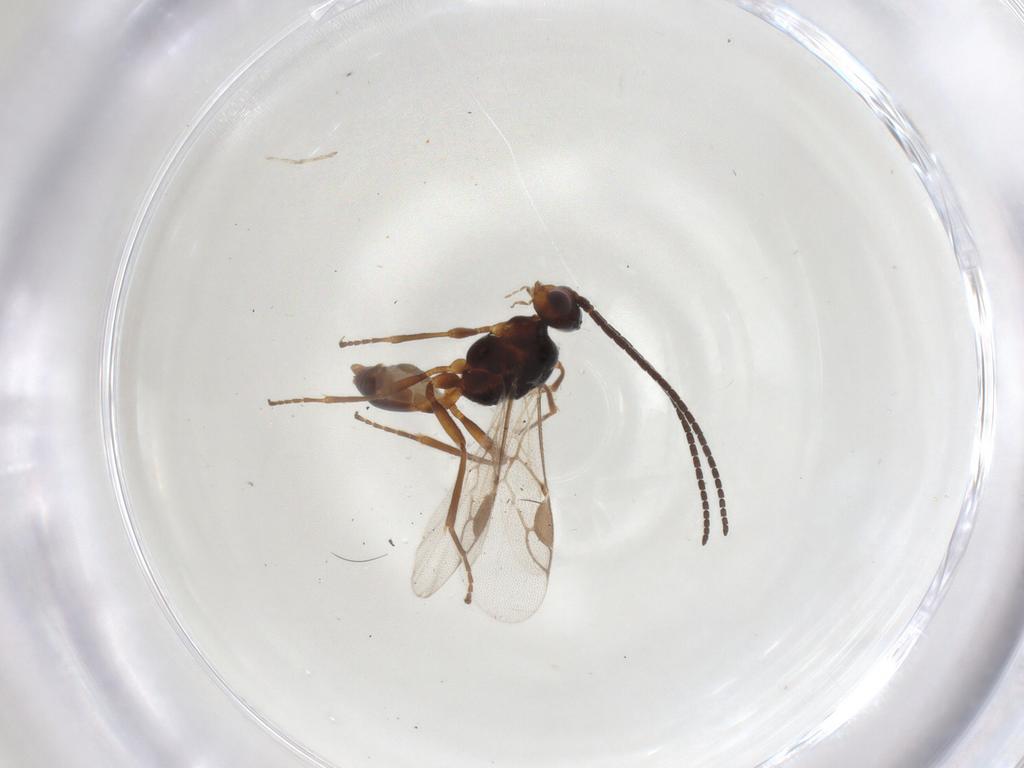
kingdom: Animalia
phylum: Arthropoda
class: Insecta
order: Hymenoptera
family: Braconidae
